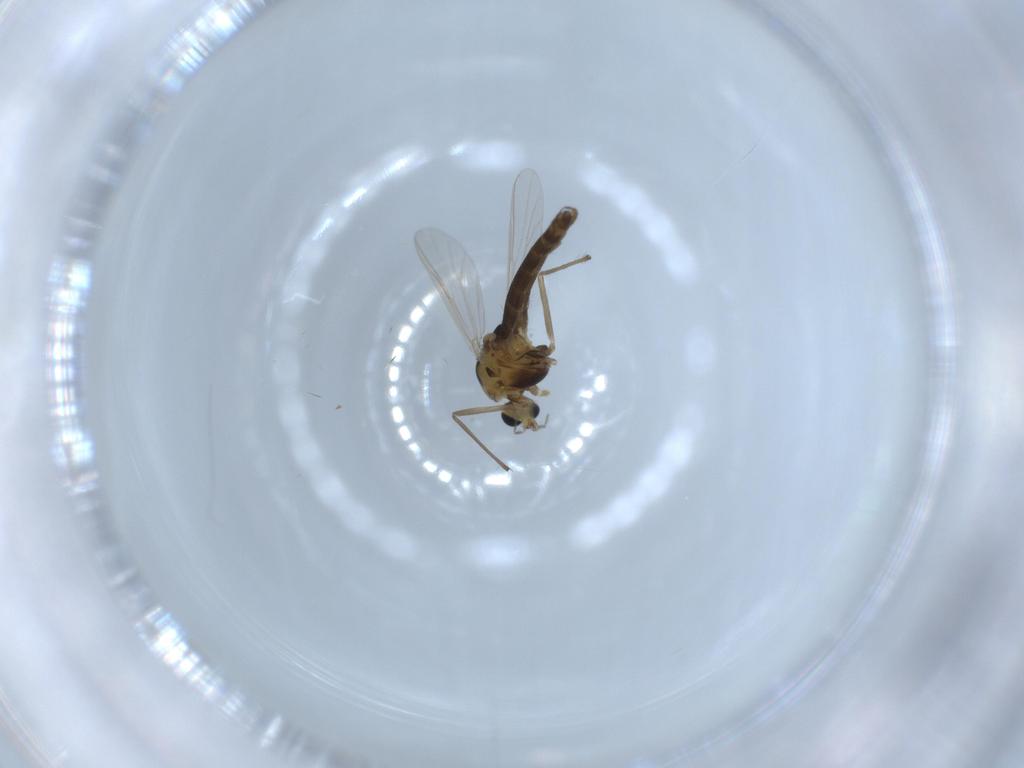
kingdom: Animalia
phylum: Arthropoda
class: Insecta
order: Diptera
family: Chironomidae
